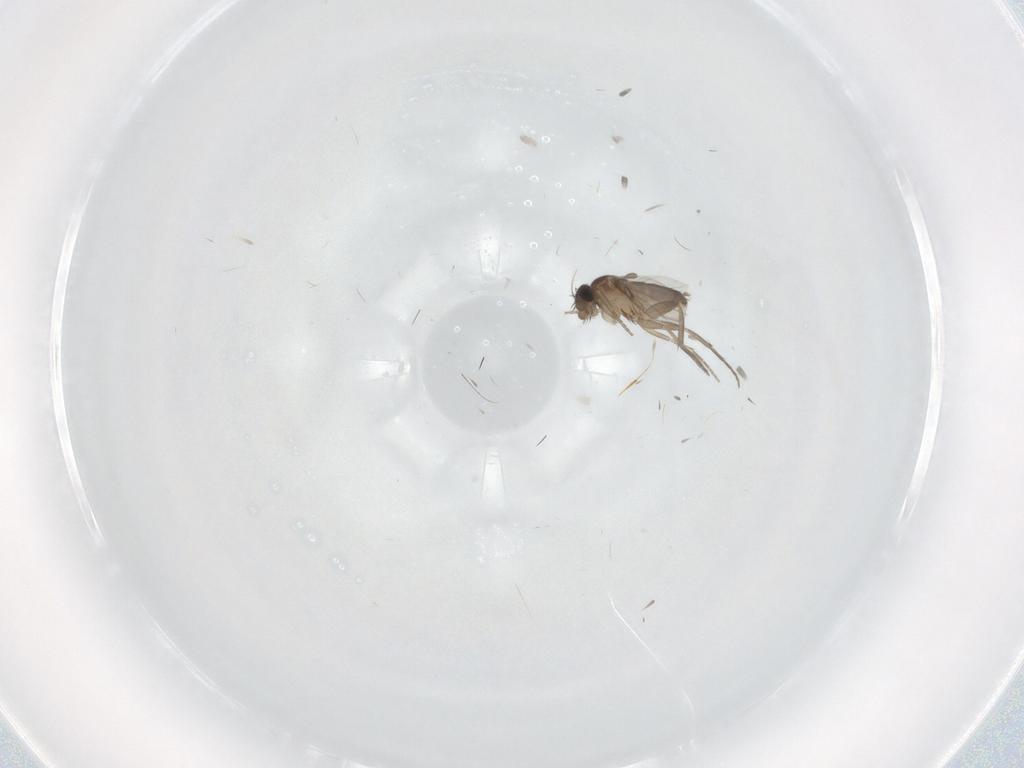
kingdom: Animalia
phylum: Arthropoda
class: Insecta
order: Diptera
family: Phoridae
